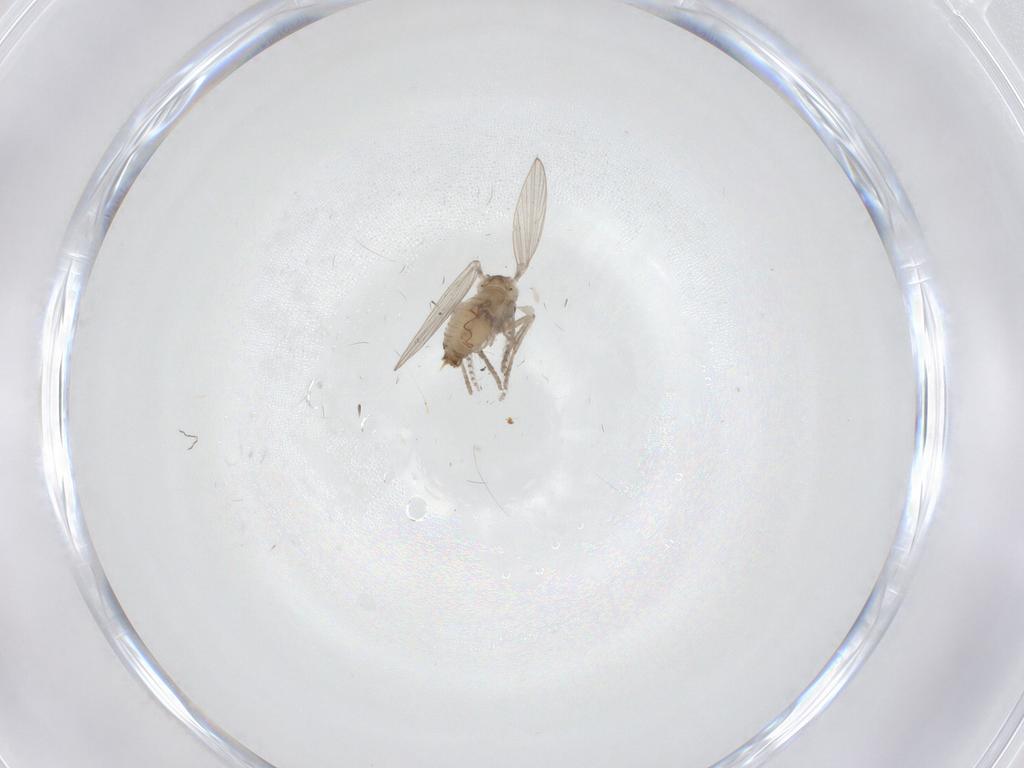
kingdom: Animalia
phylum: Arthropoda
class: Insecta
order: Diptera
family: Psychodidae
